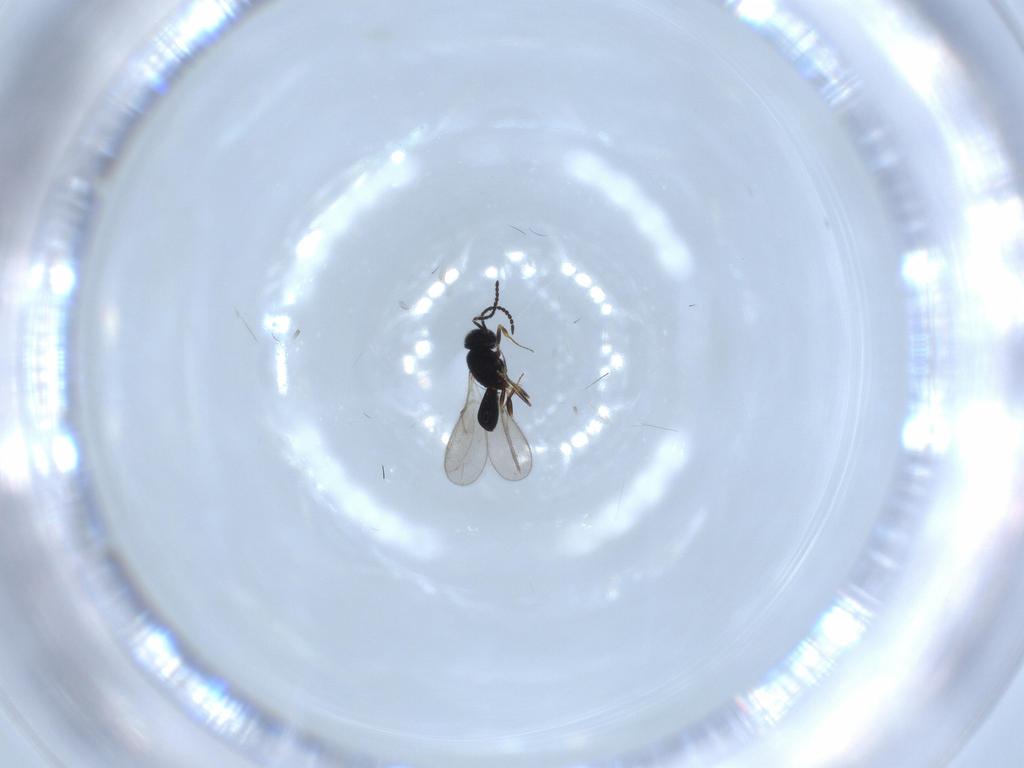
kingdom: Animalia
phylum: Arthropoda
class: Insecta
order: Hymenoptera
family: Scelionidae
